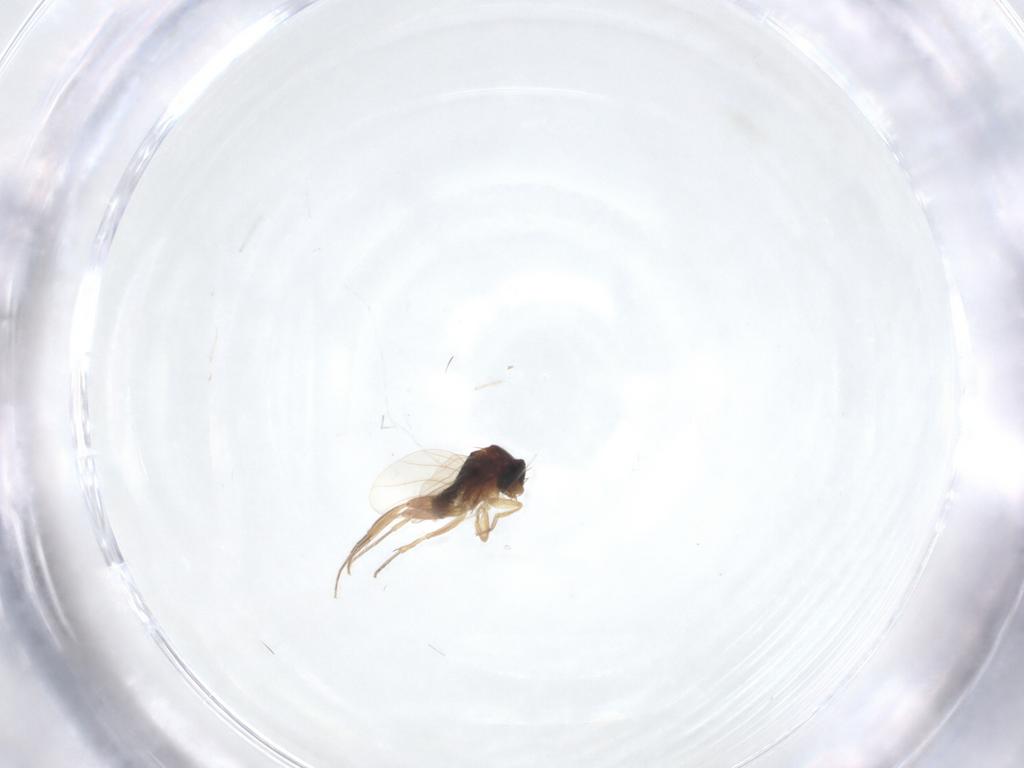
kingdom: Animalia
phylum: Arthropoda
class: Insecta
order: Diptera
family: Phoridae
